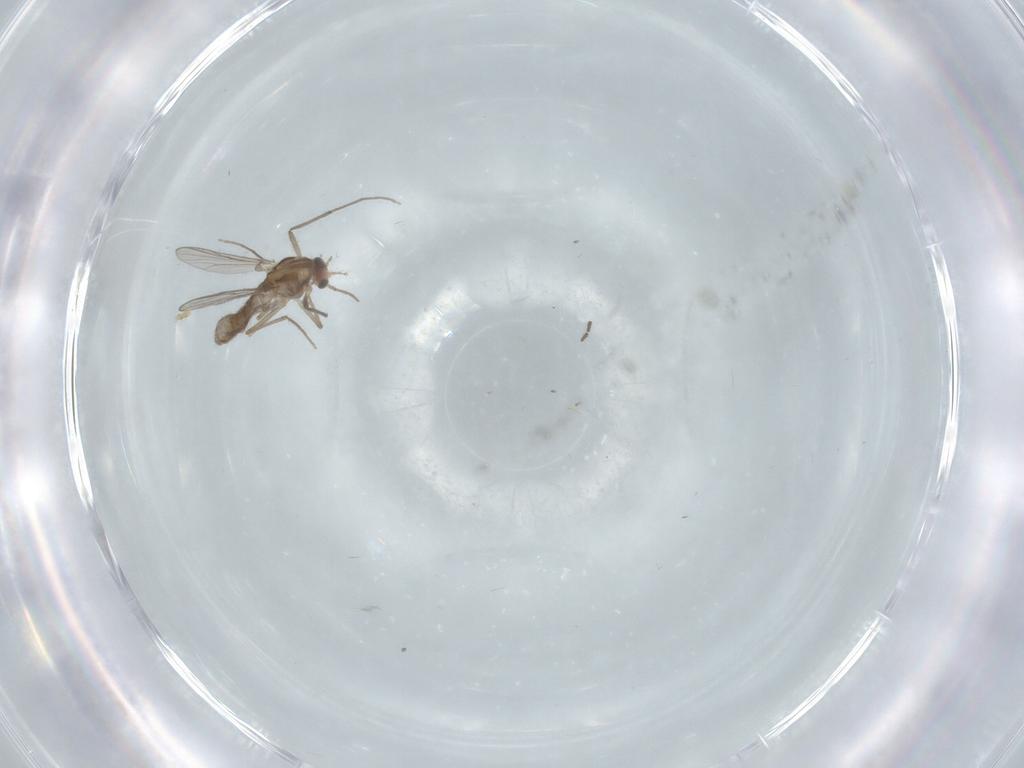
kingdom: Animalia
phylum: Arthropoda
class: Insecta
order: Diptera
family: Chironomidae
